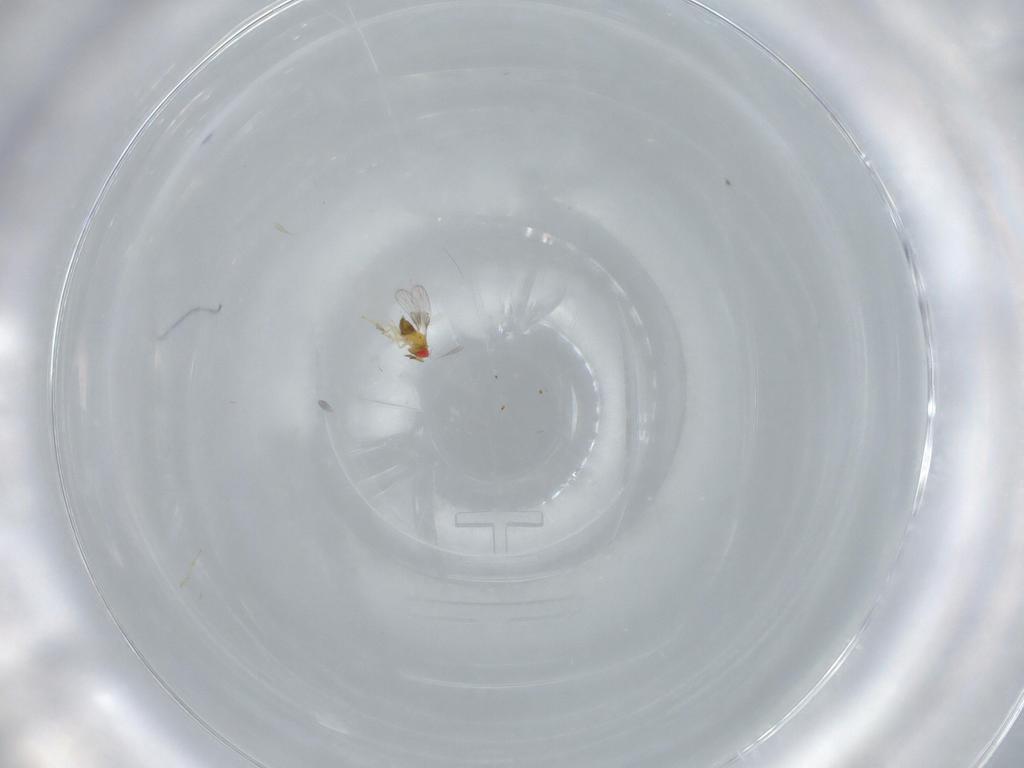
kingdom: Animalia
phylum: Arthropoda
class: Insecta
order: Hymenoptera
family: Trichogrammatidae
